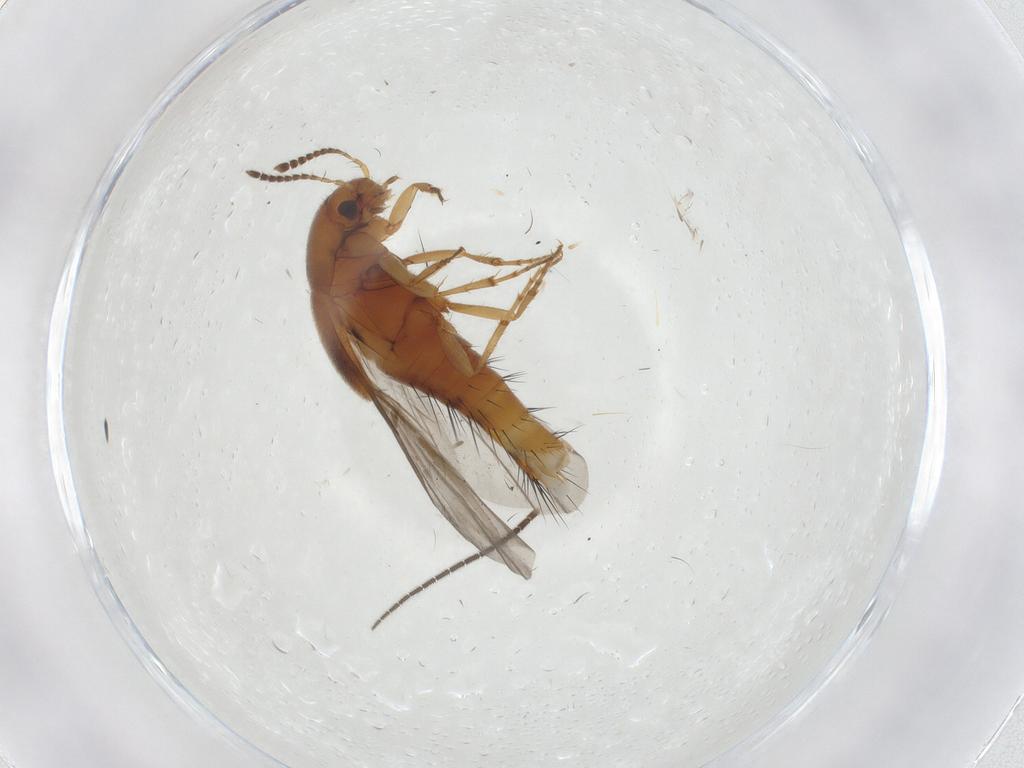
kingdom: Animalia
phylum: Arthropoda
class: Insecta
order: Coleoptera
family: Staphylinidae
